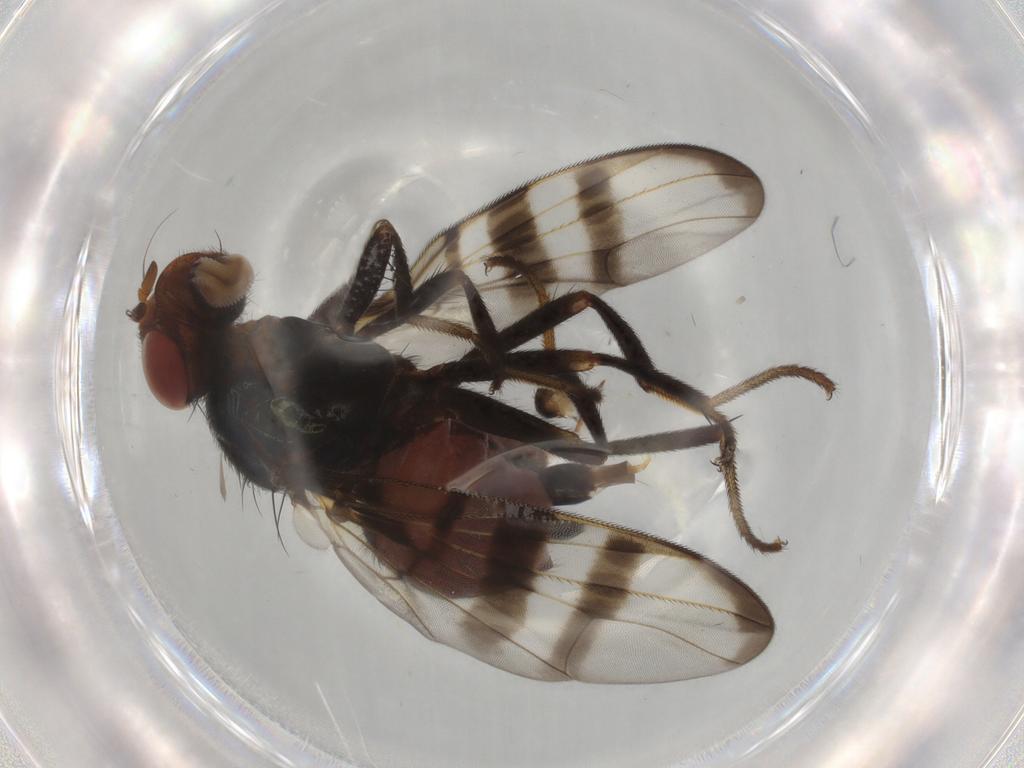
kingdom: Animalia
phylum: Arthropoda
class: Insecta
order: Diptera
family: Platystomatidae
